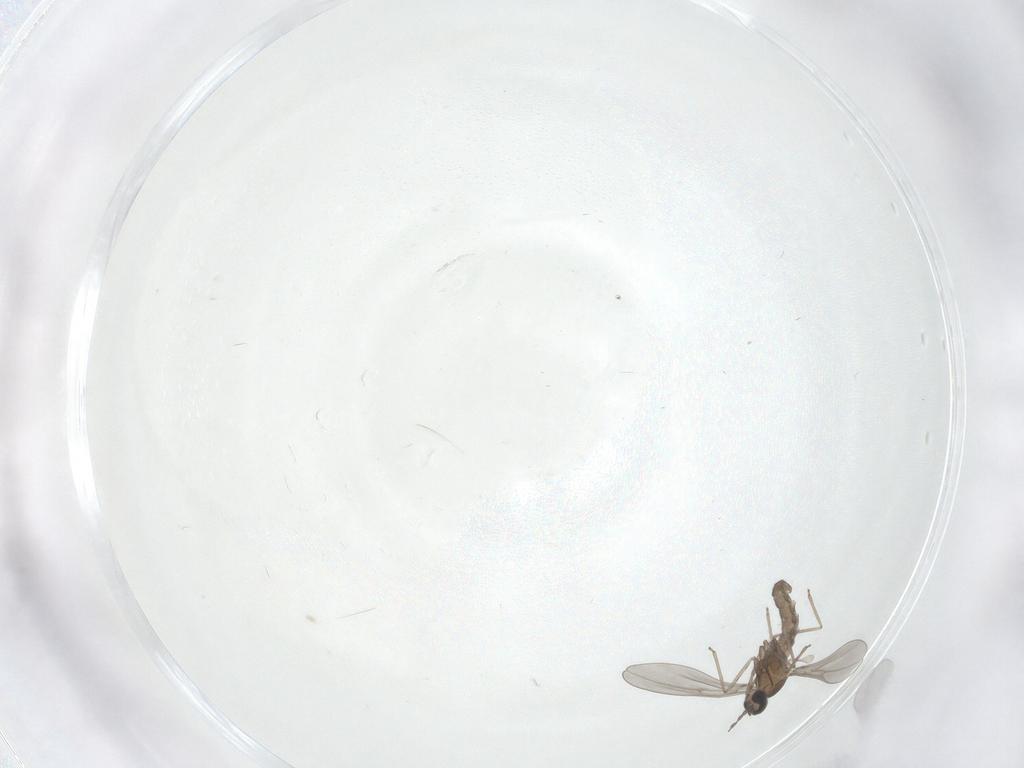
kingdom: Animalia
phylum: Arthropoda
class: Insecta
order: Diptera
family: Cecidomyiidae
